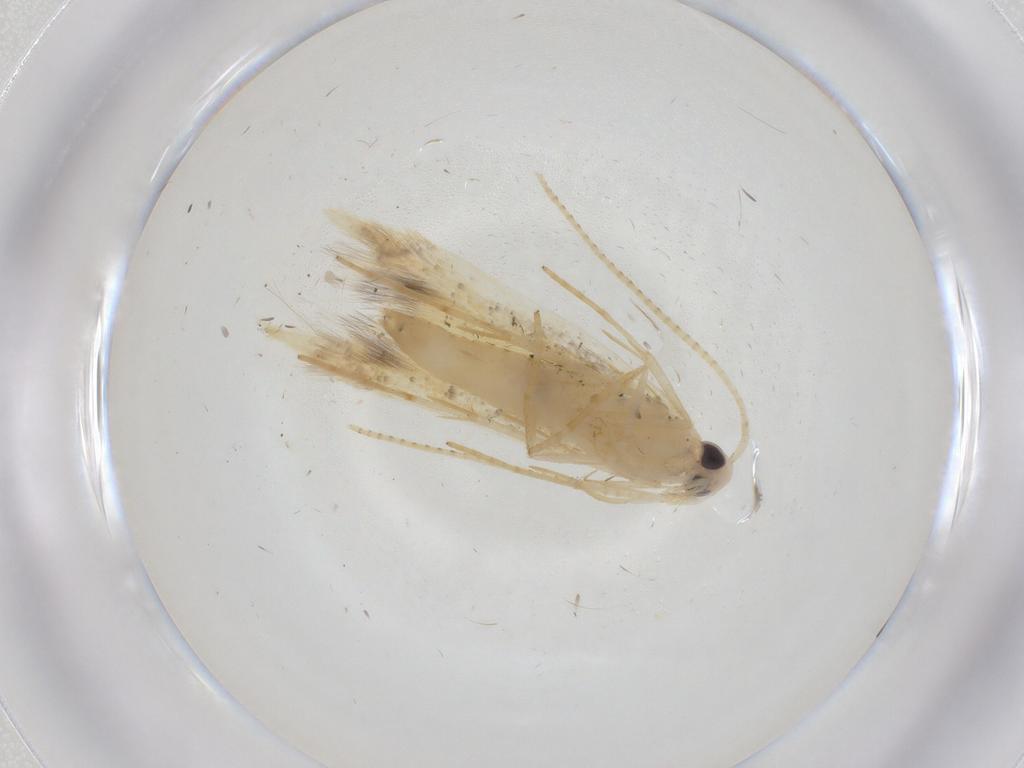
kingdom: Animalia
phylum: Arthropoda
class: Insecta
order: Lepidoptera
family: Oecophoridae
